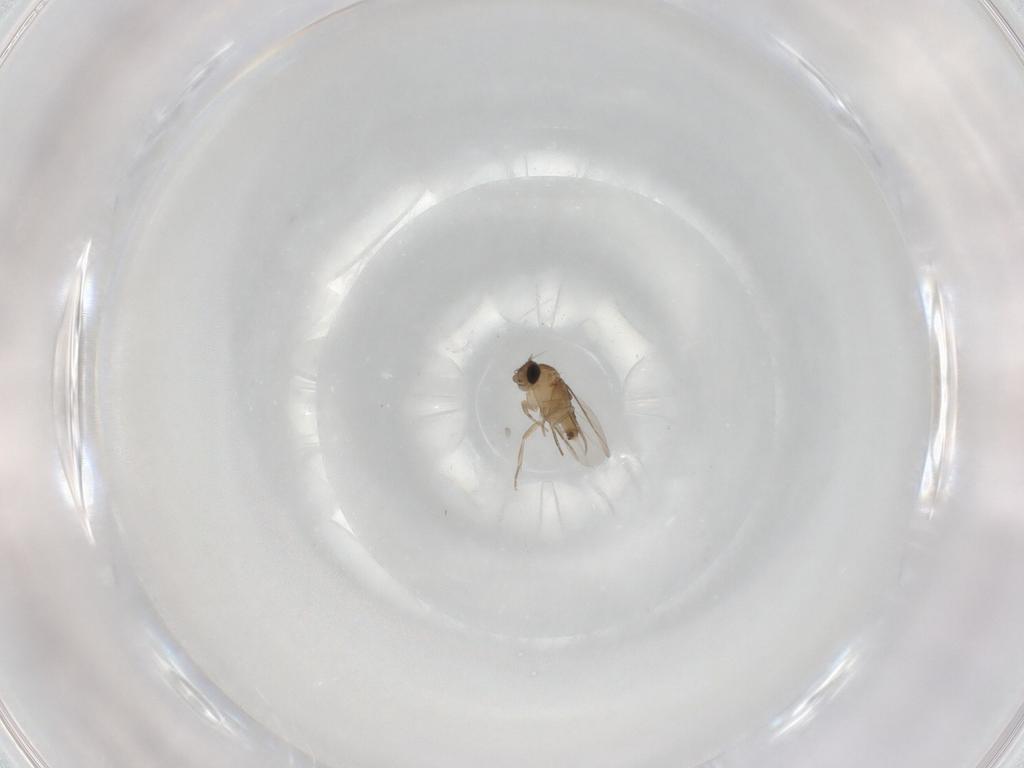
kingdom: Animalia
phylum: Arthropoda
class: Insecta
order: Diptera
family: Phoridae
